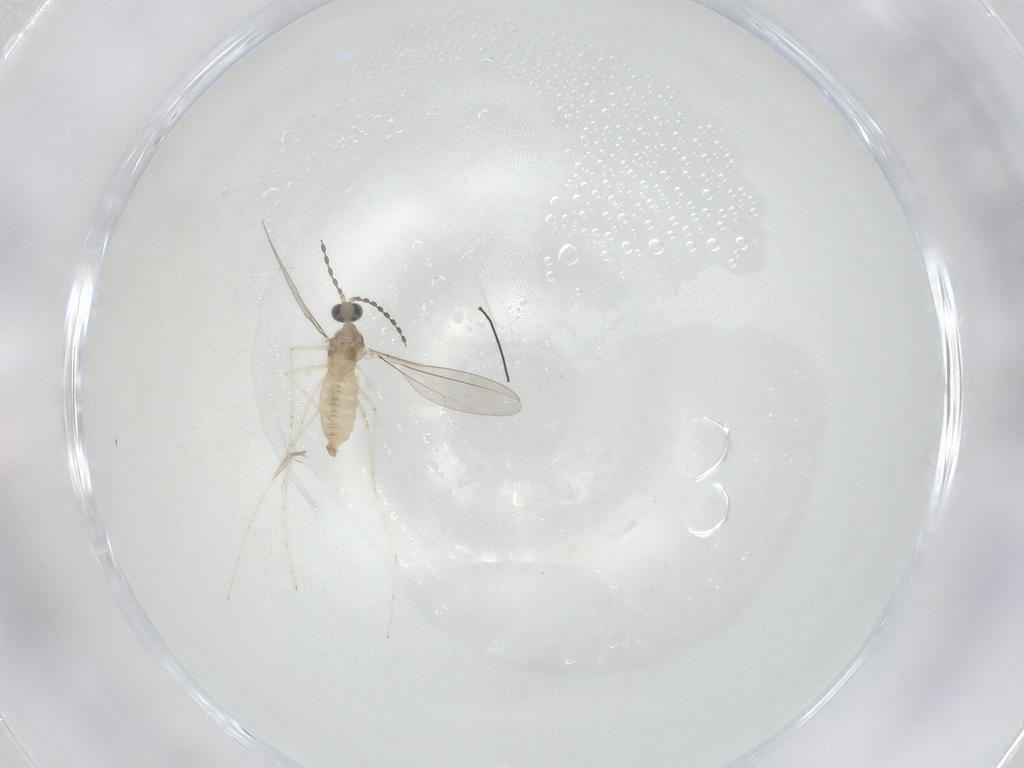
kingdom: Animalia
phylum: Arthropoda
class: Insecta
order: Diptera
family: Cecidomyiidae
